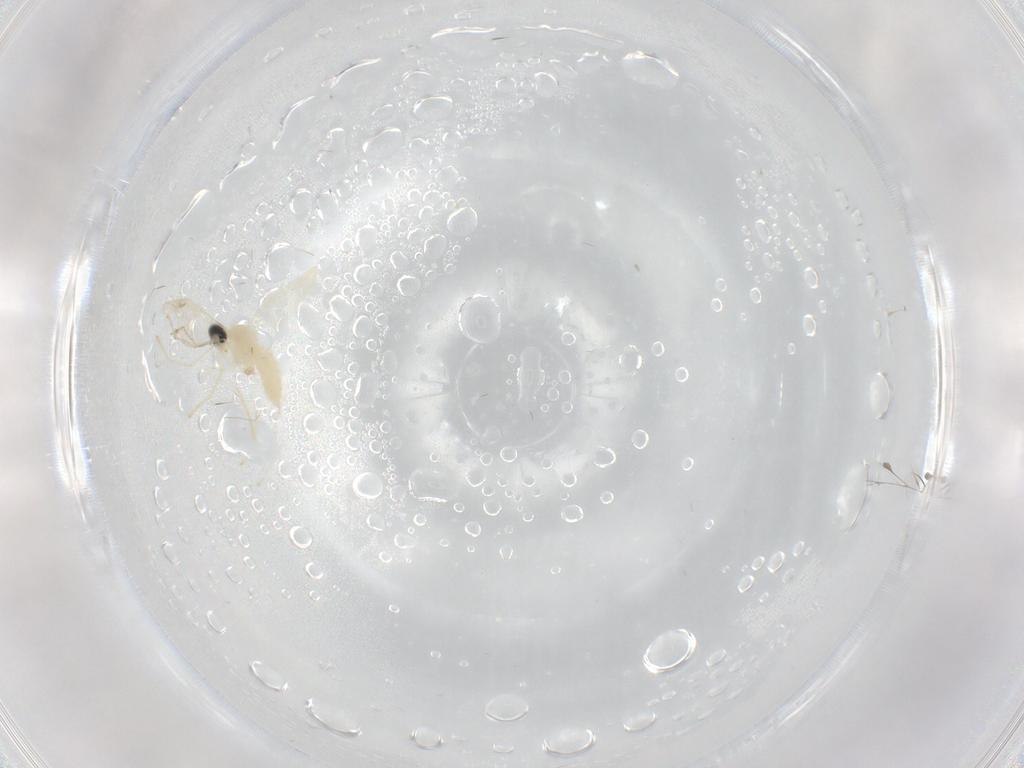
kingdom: Animalia
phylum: Arthropoda
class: Insecta
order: Diptera
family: Cecidomyiidae
